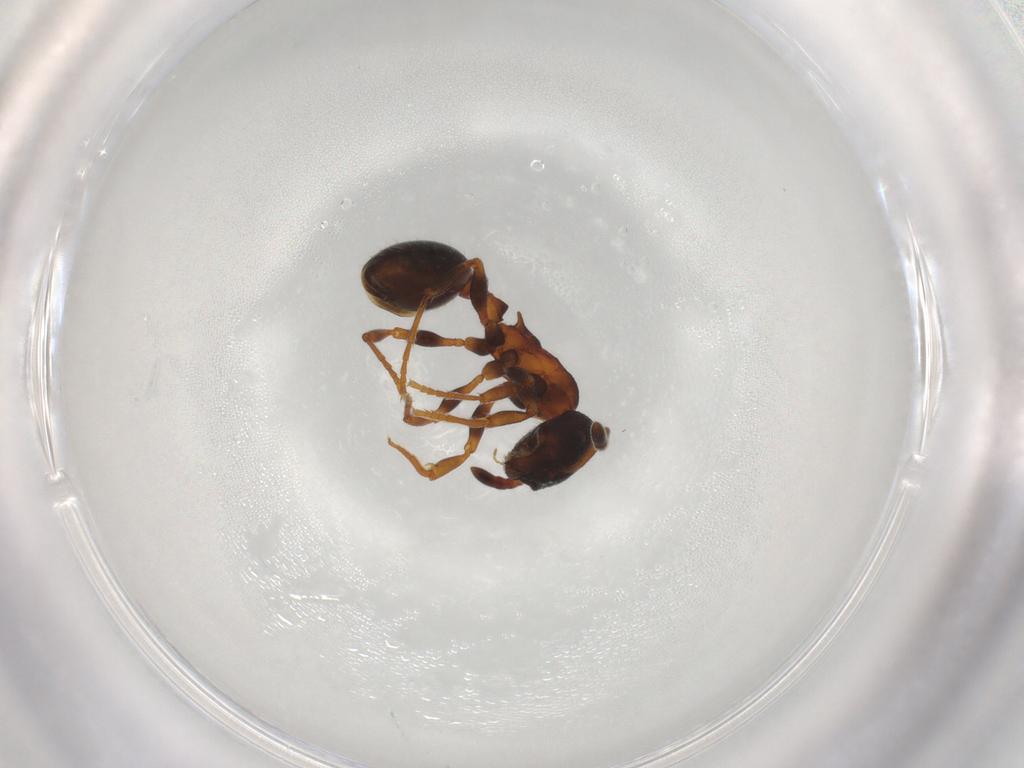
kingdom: Animalia
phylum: Arthropoda
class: Insecta
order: Hymenoptera
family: Formicidae
